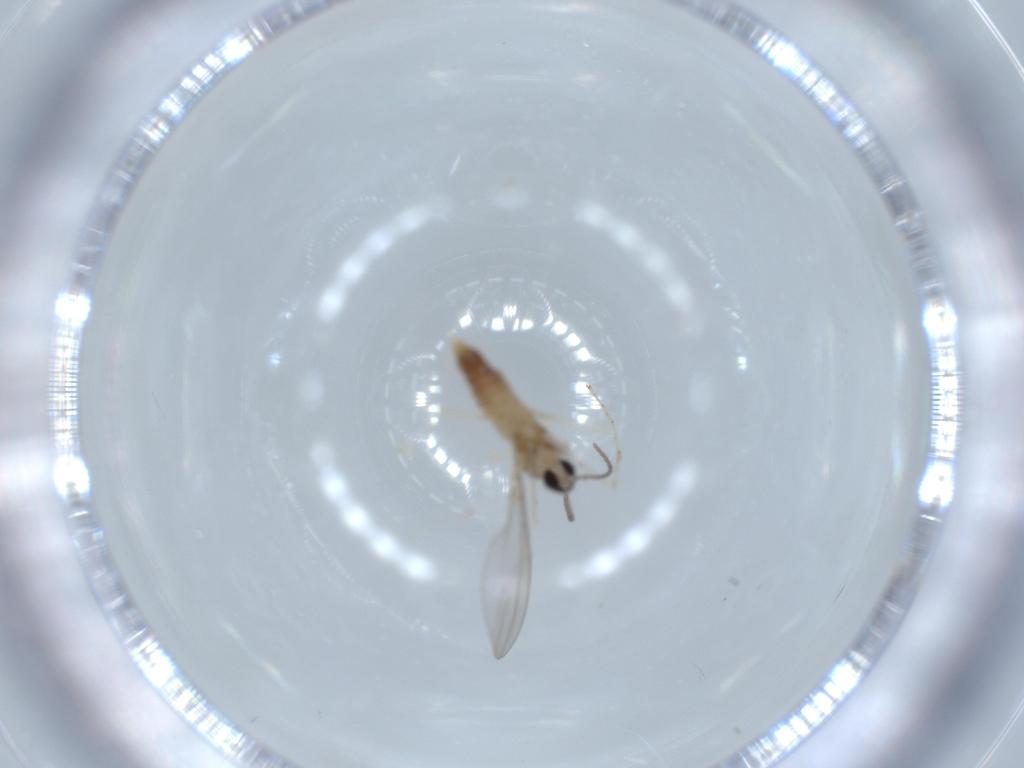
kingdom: Animalia
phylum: Arthropoda
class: Insecta
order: Diptera
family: Cecidomyiidae
